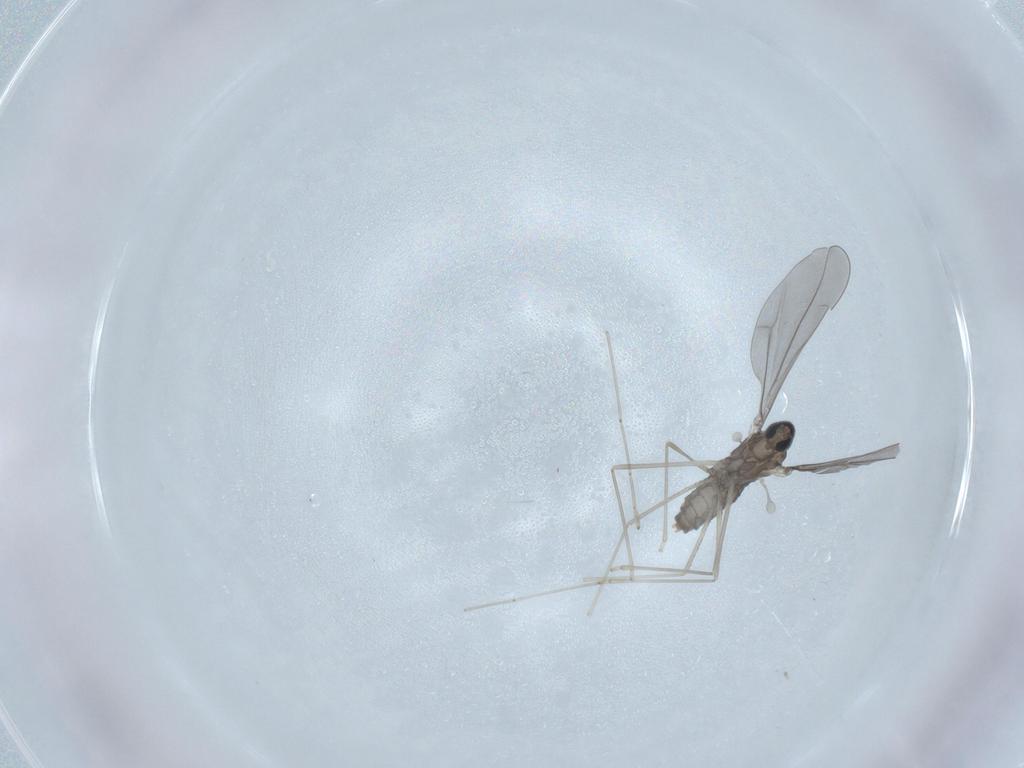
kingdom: Animalia
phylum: Arthropoda
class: Insecta
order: Diptera
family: Cecidomyiidae
